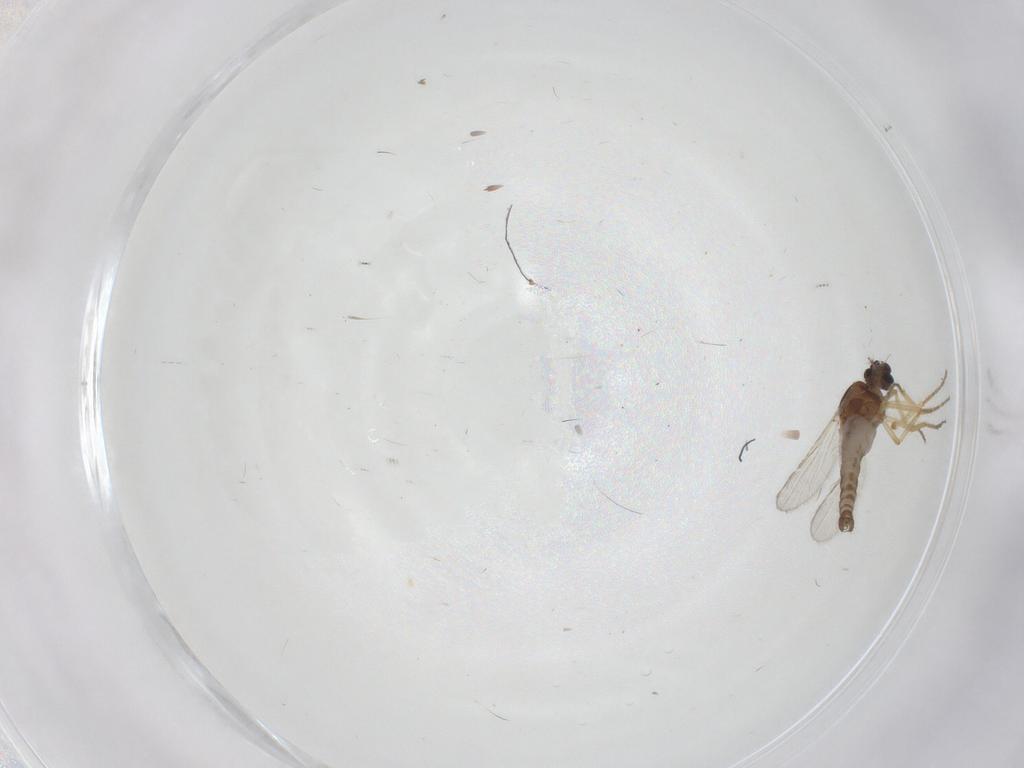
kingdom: Animalia
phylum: Arthropoda
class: Insecta
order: Diptera
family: Ceratopogonidae
